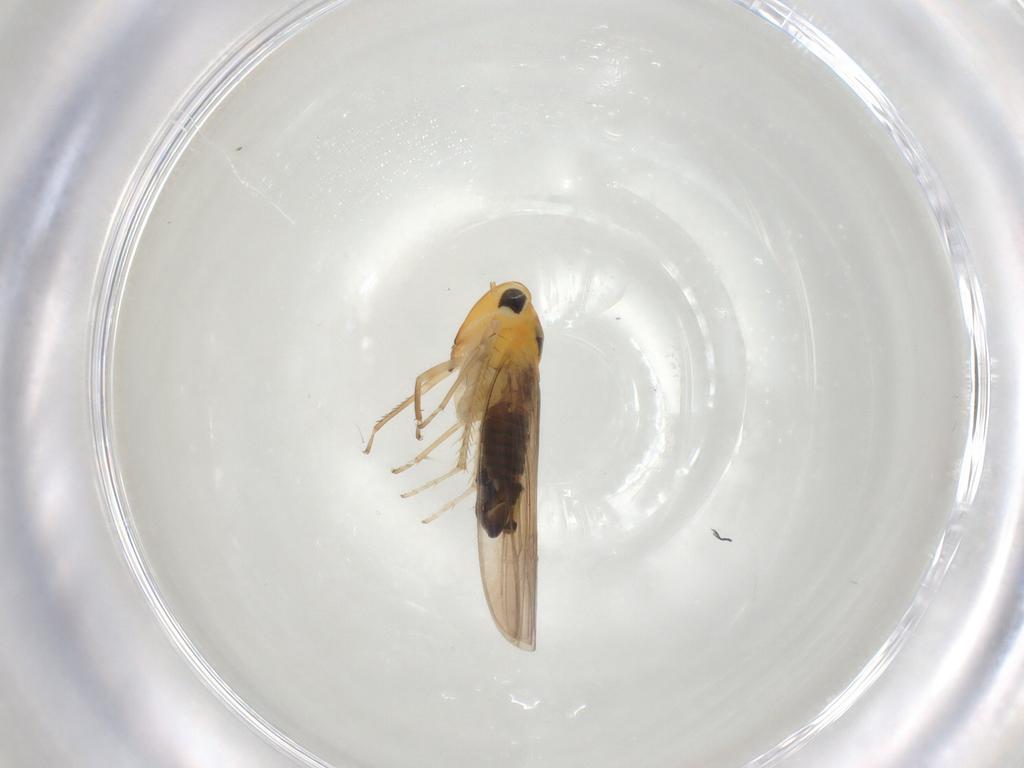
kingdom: Animalia
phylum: Arthropoda
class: Insecta
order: Hemiptera
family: Cicadellidae
